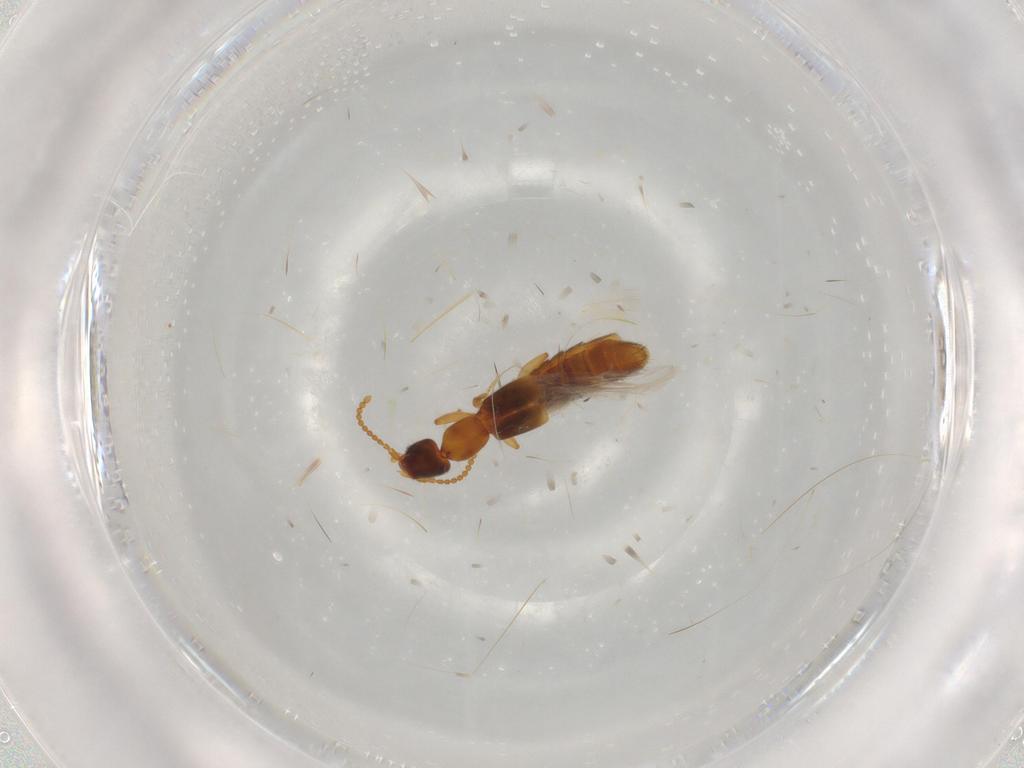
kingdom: Animalia
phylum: Arthropoda
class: Insecta
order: Coleoptera
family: Staphylinidae
